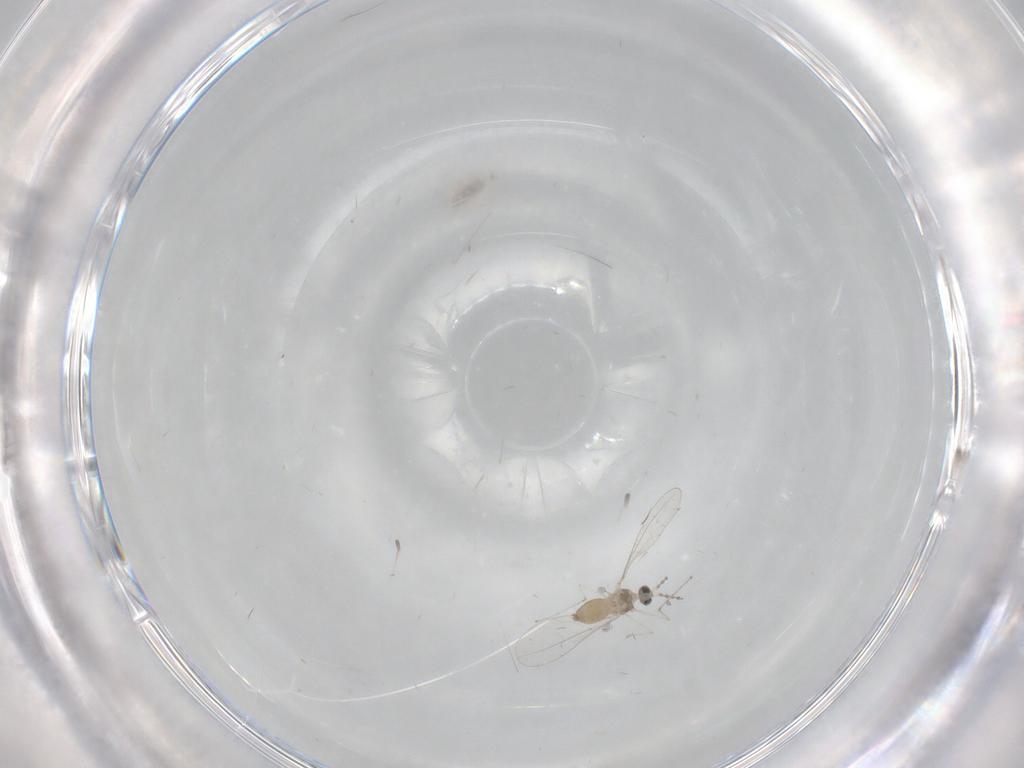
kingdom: Animalia
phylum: Arthropoda
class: Insecta
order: Diptera
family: Cecidomyiidae
